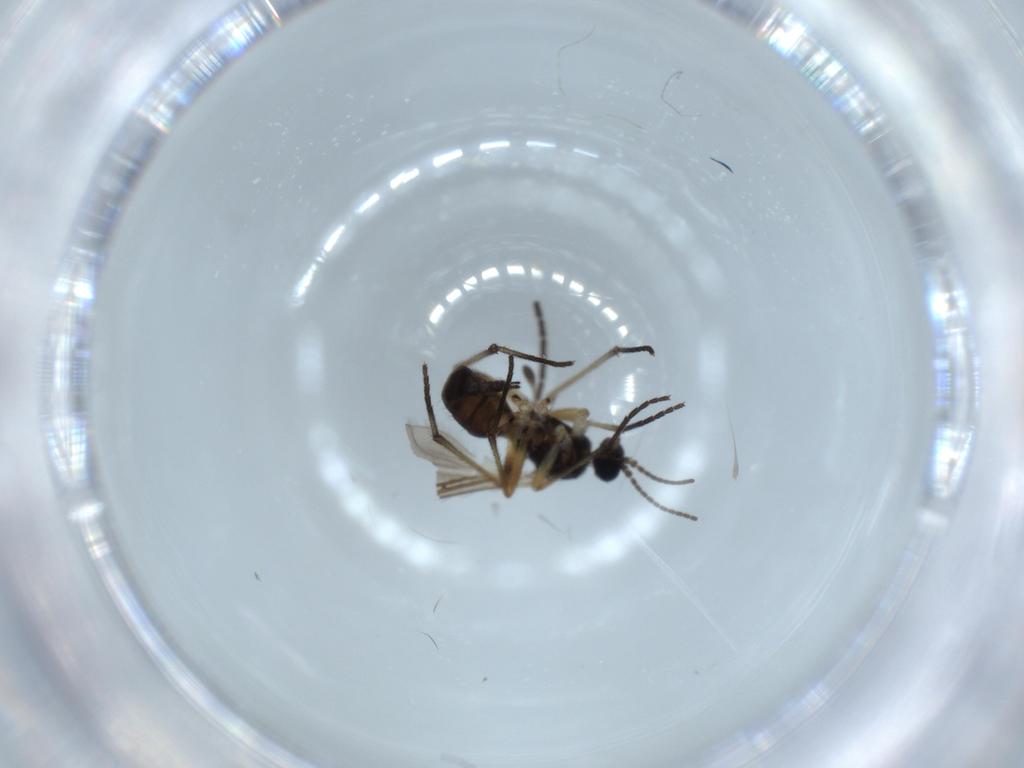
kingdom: Animalia
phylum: Arthropoda
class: Insecta
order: Diptera
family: Sciaridae
